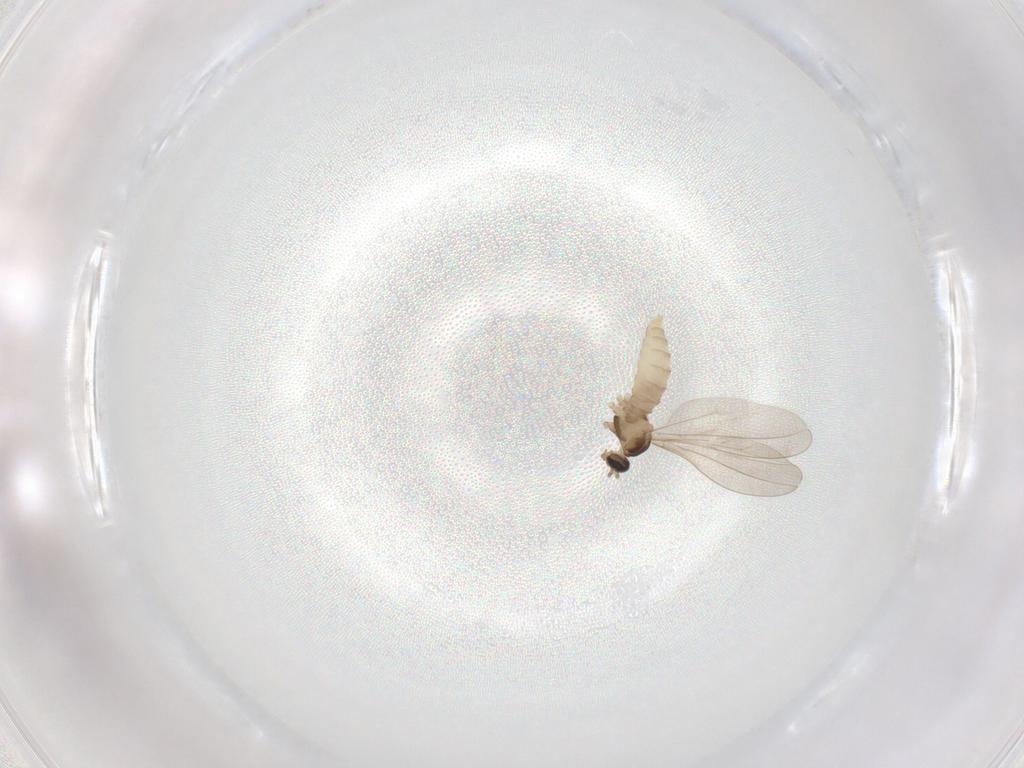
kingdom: Animalia
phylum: Arthropoda
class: Insecta
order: Diptera
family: Cecidomyiidae
